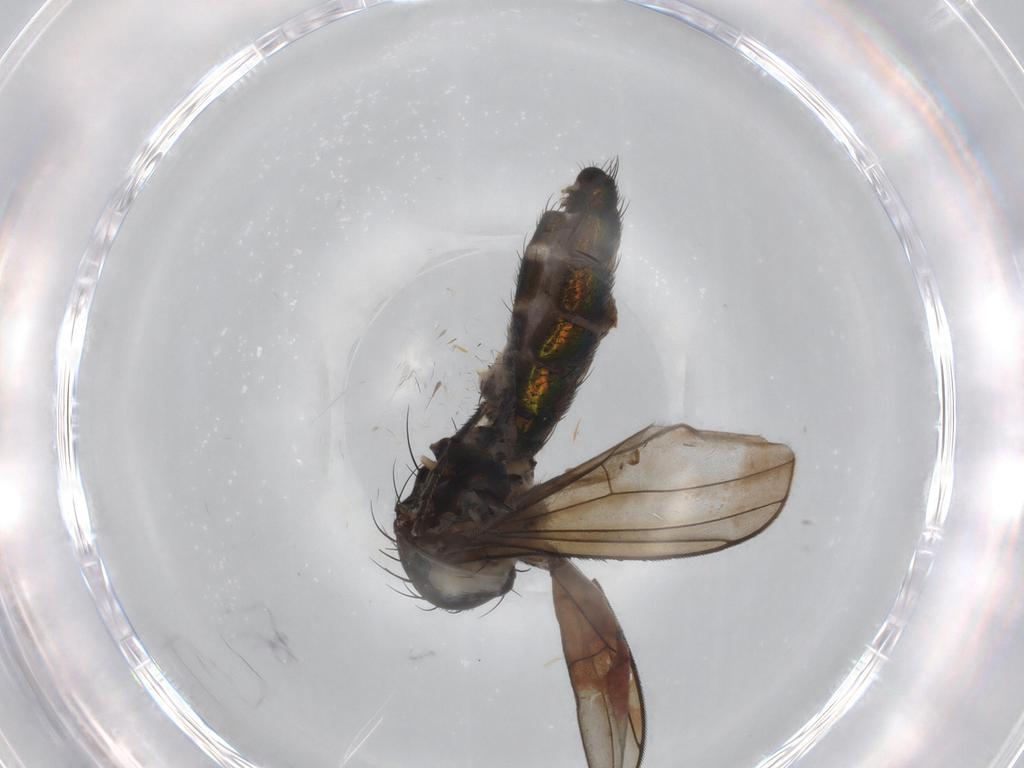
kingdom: Animalia
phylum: Arthropoda
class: Insecta
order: Diptera
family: Dolichopodidae
